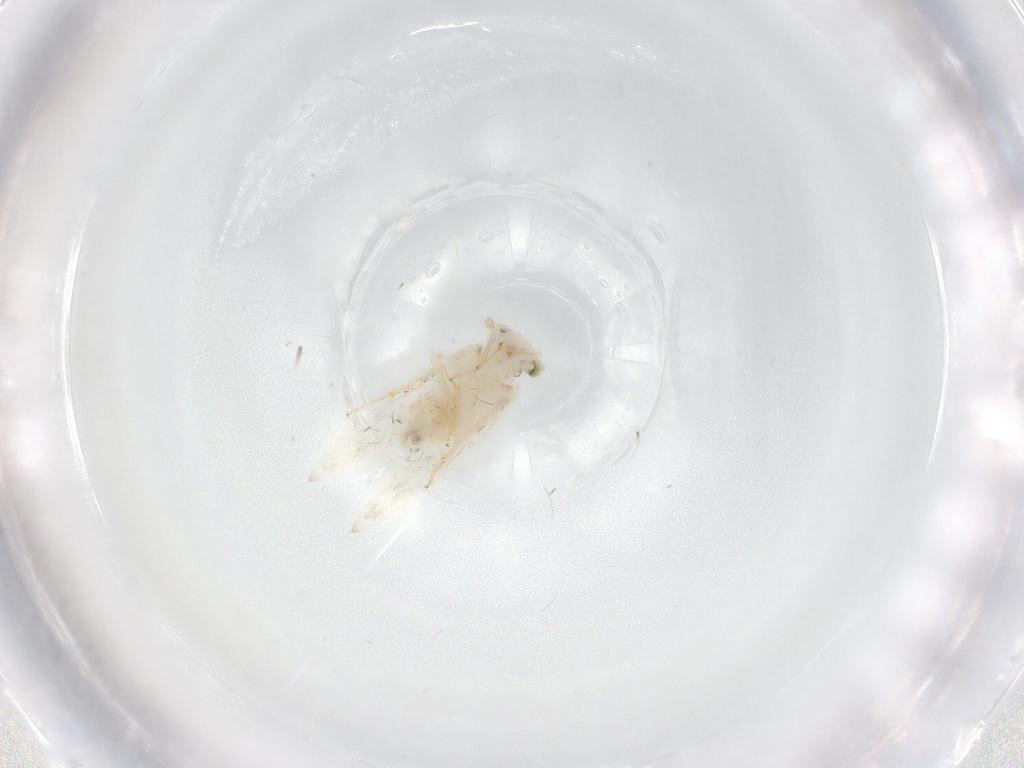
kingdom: Animalia
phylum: Arthropoda
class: Insecta
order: Psocodea
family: Lepidopsocidae
